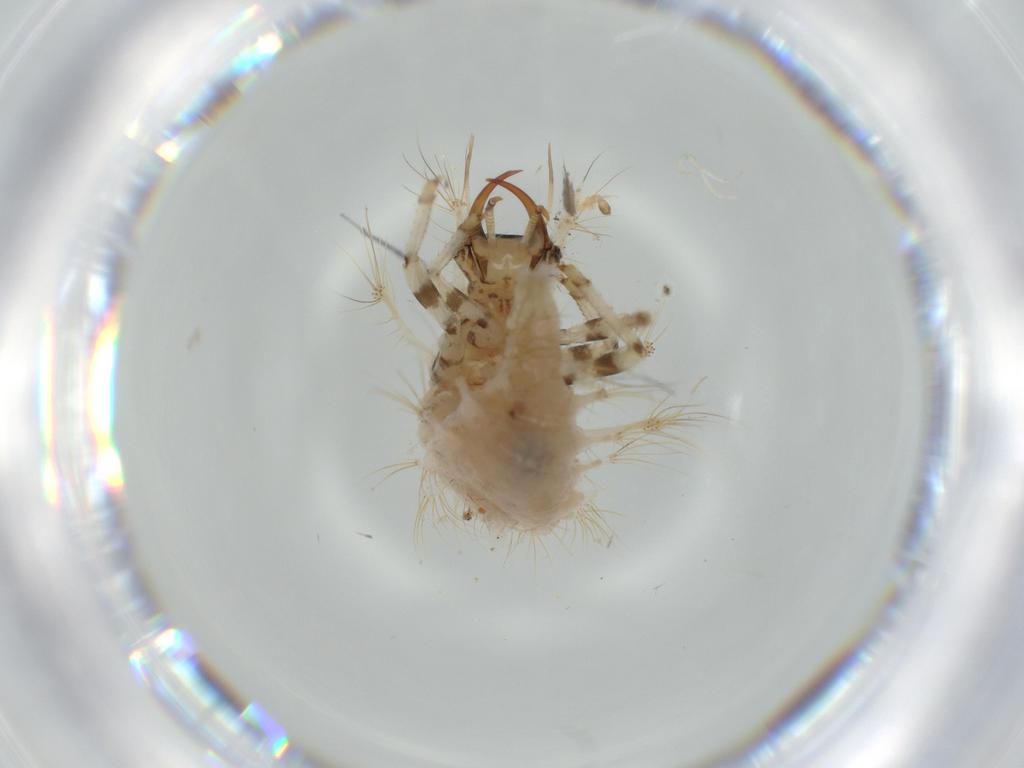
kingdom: Animalia
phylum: Arthropoda
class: Insecta
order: Neuroptera
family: Chrysopidae
